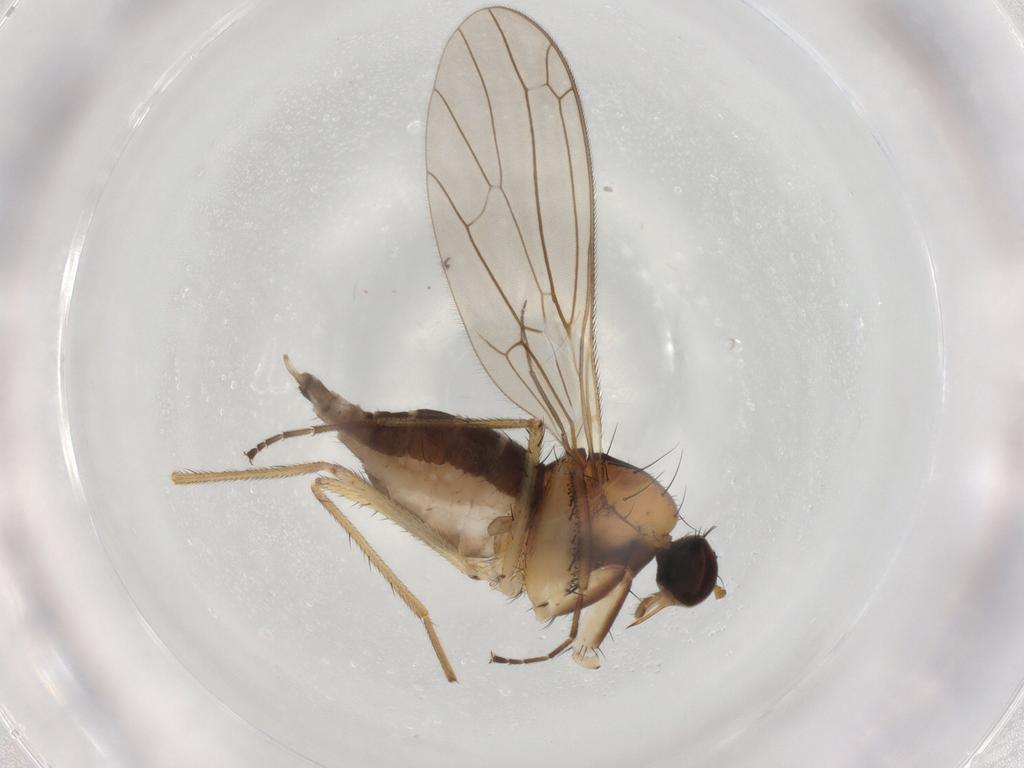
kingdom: Animalia
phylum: Arthropoda
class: Insecta
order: Diptera
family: Empididae
